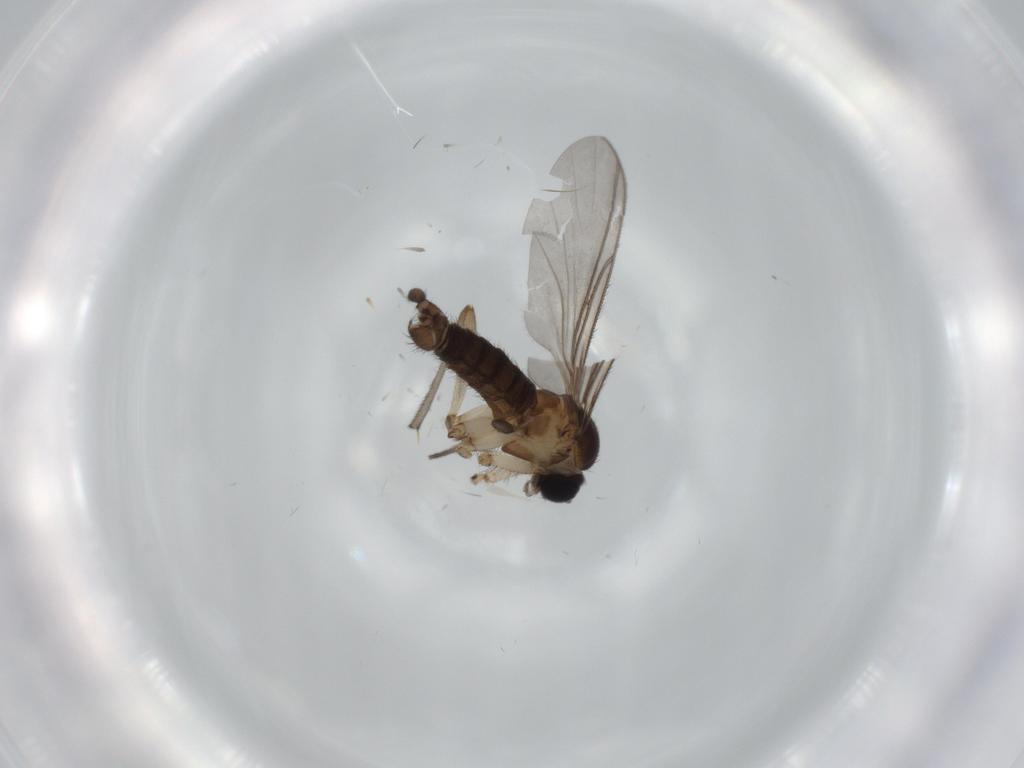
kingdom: Animalia
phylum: Arthropoda
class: Insecta
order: Diptera
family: Sciaridae
